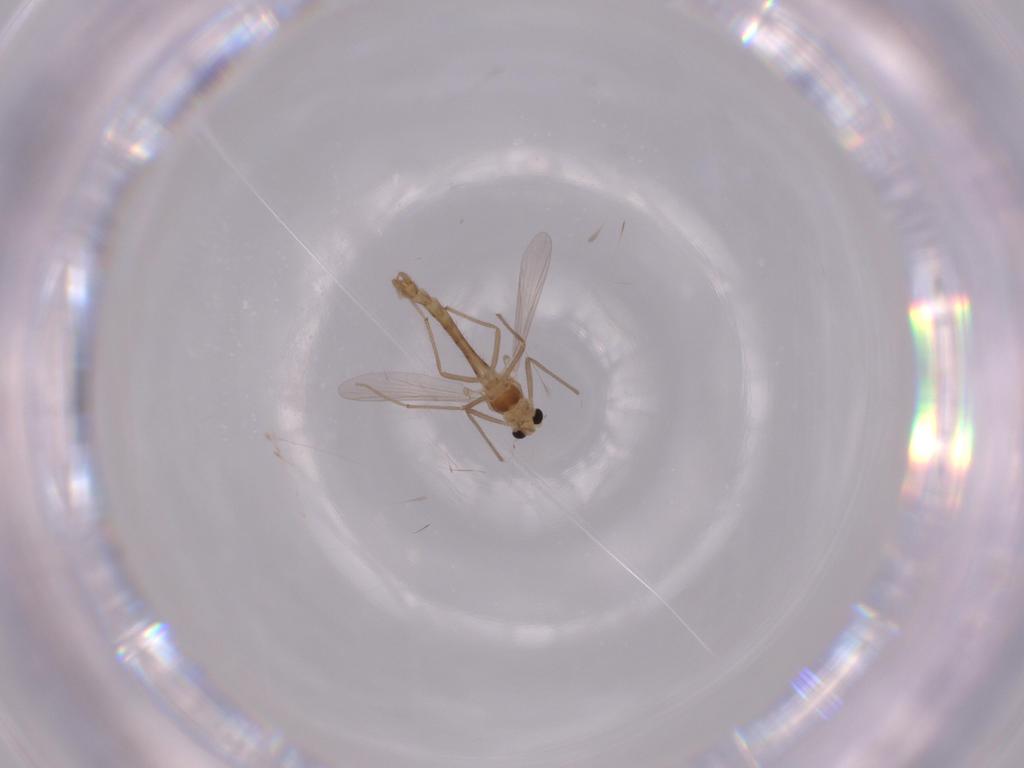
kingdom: Animalia
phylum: Arthropoda
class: Insecta
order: Diptera
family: Chironomidae
